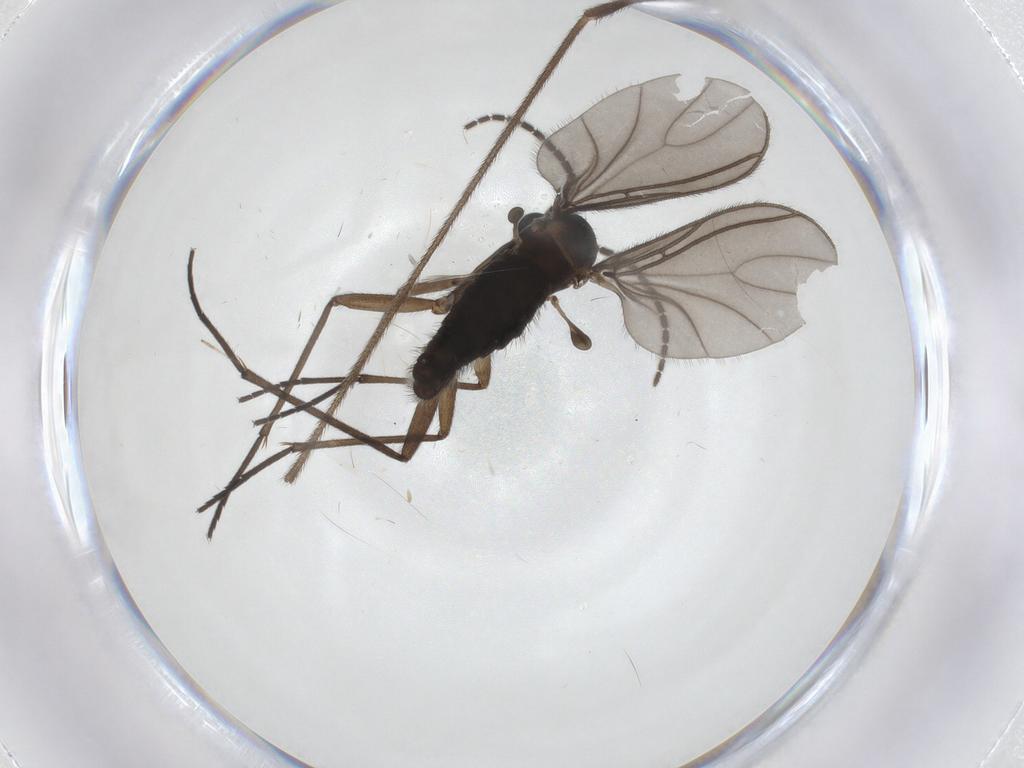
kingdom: Animalia
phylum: Arthropoda
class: Insecta
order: Diptera
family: Sciaridae
